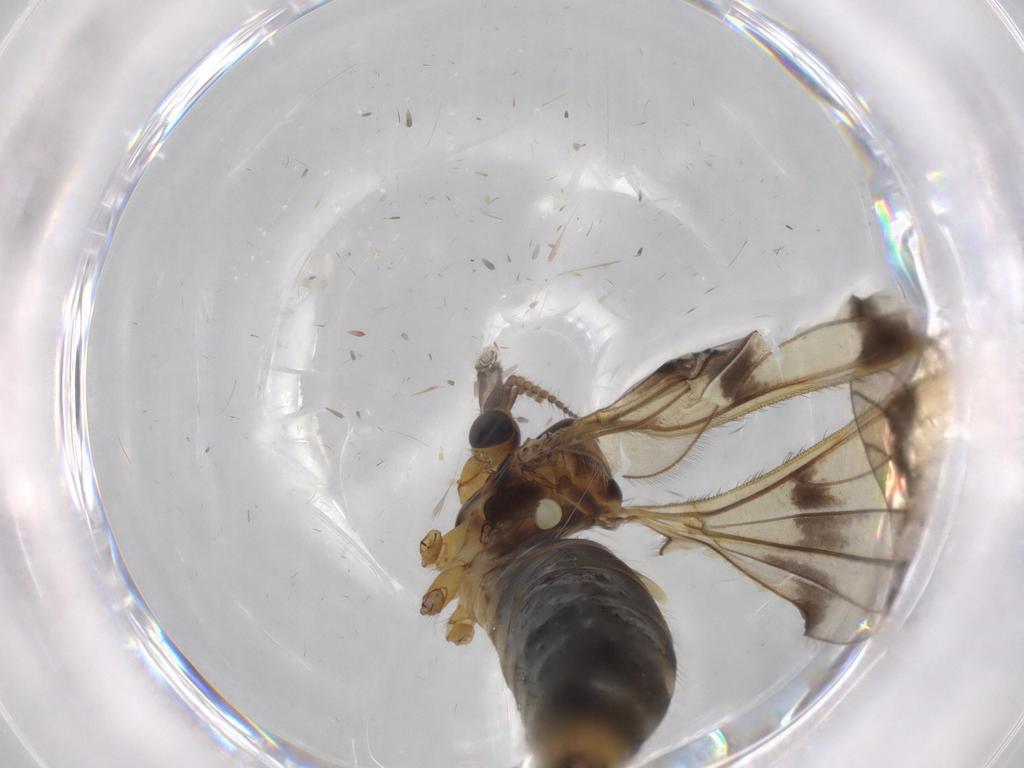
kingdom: Animalia
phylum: Arthropoda
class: Insecta
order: Diptera
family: Limoniidae
